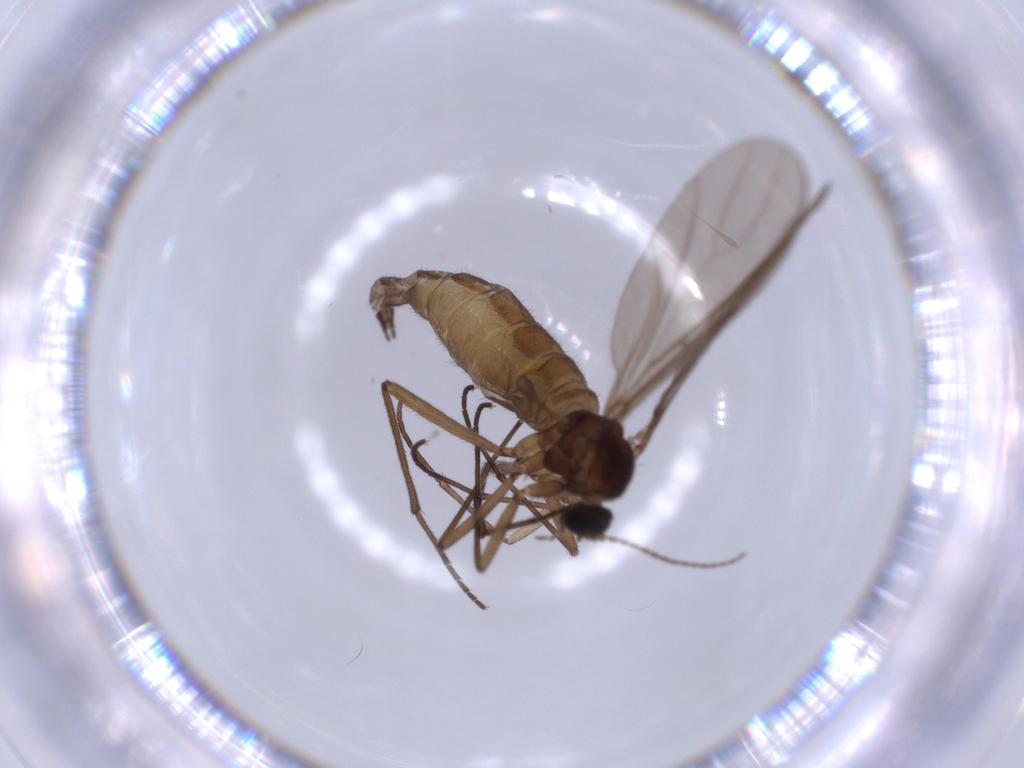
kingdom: Animalia
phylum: Arthropoda
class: Insecta
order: Diptera
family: Sciaridae
